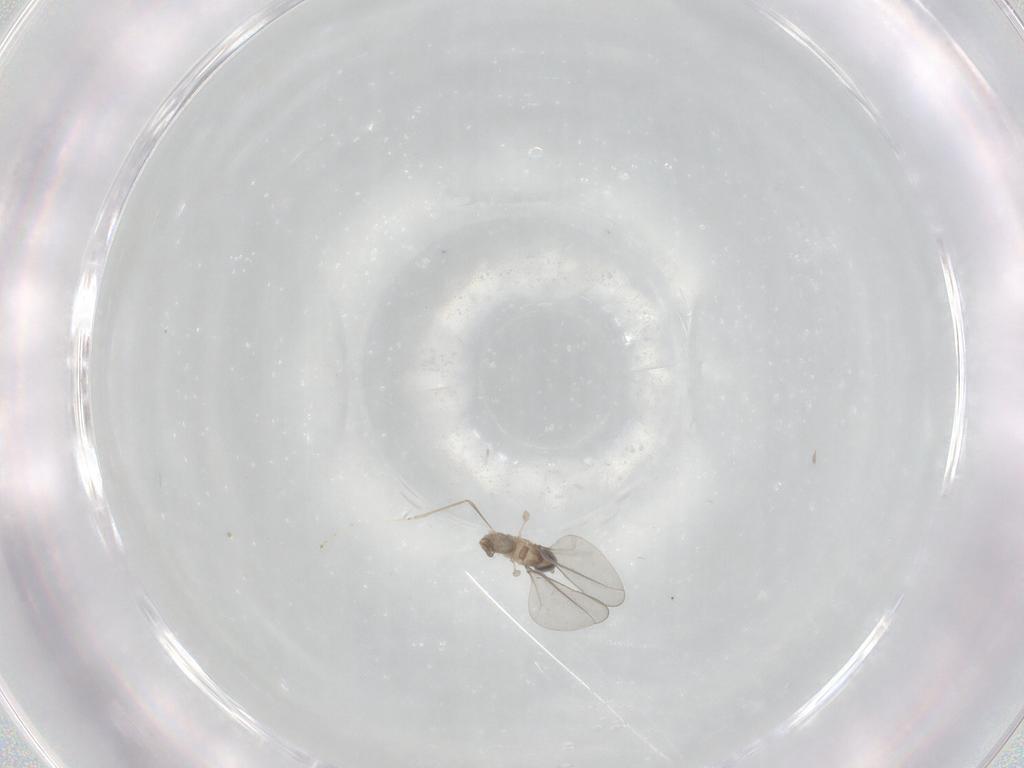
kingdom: Animalia
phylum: Arthropoda
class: Insecta
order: Diptera
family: Cecidomyiidae
